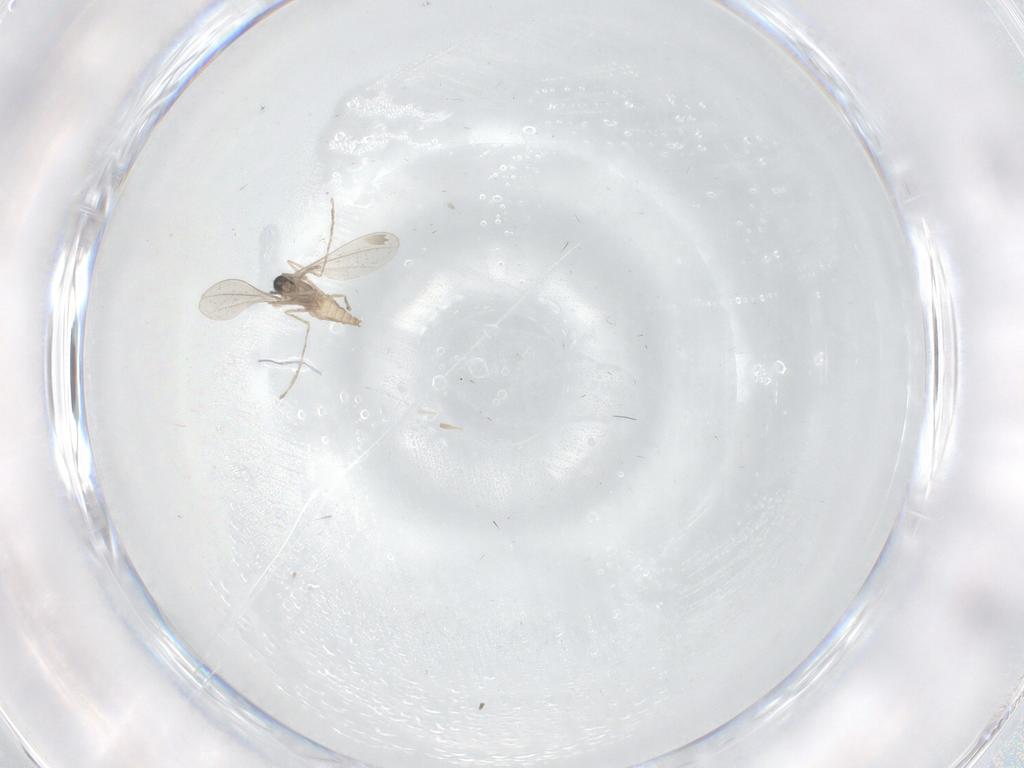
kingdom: Animalia
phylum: Arthropoda
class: Insecta
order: Diptera
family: Cecidomyiidae
